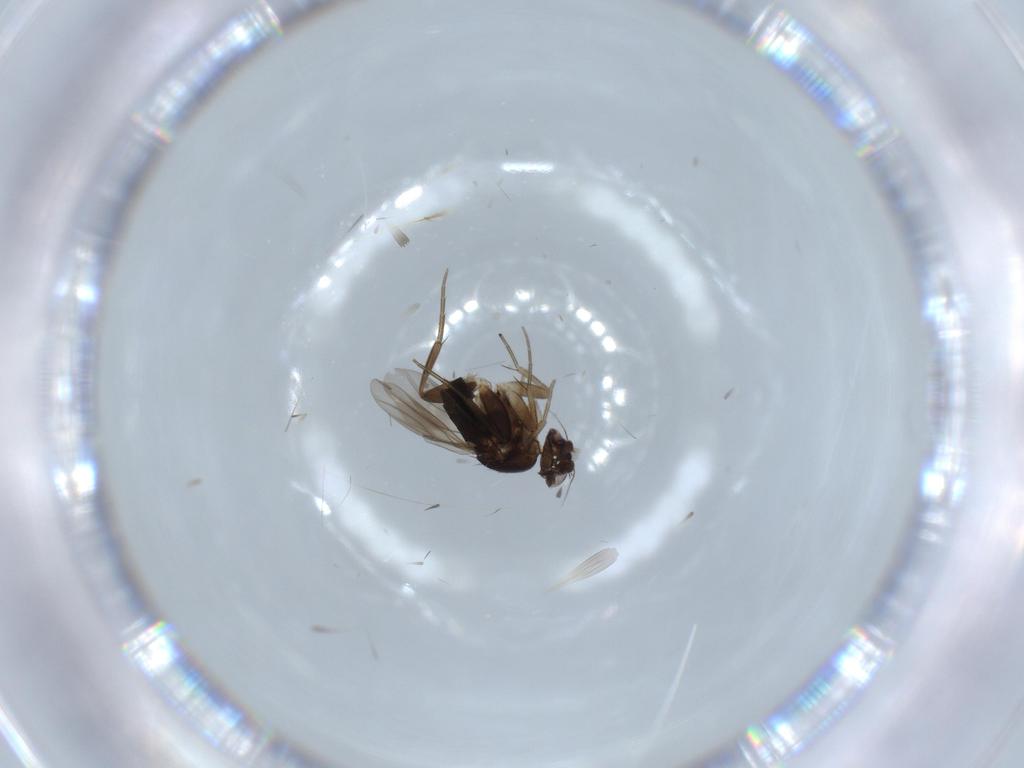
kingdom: Animalia
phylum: Arthropoda
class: Insecta
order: Diptera
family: Phoridae
